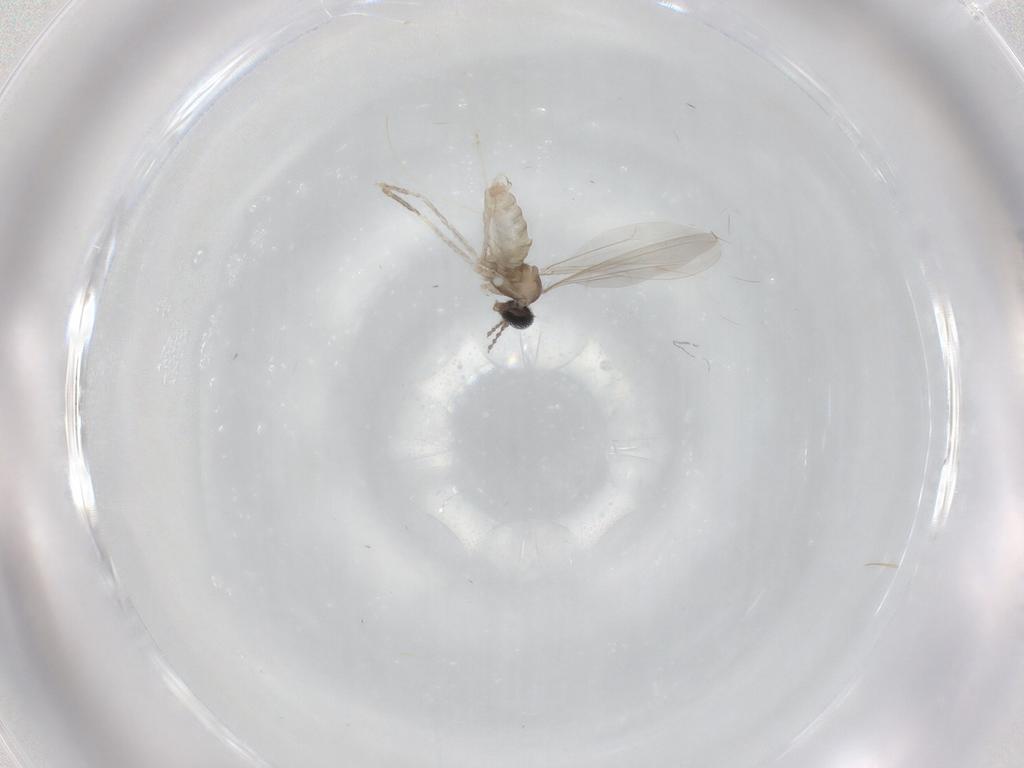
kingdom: Animalia
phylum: Arthropoda
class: Insecta
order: Diptera
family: Cecidomyiidae
